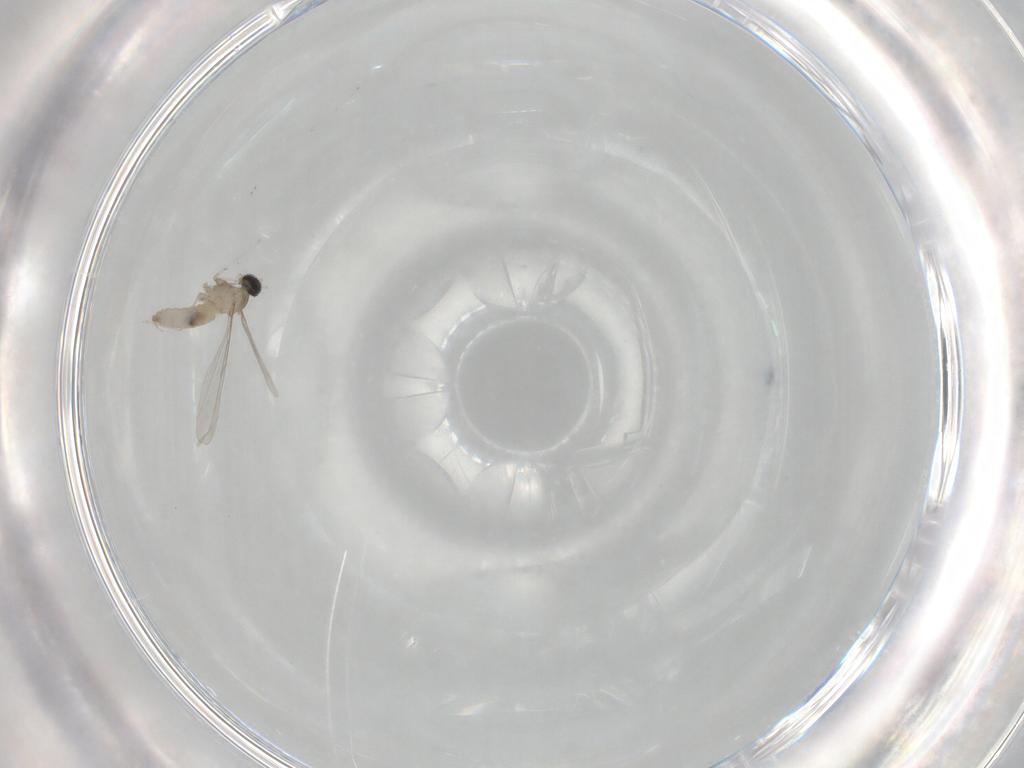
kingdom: Animalia
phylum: Arthropoda
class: Insecta
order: Diptera
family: Cecidomyiidae
